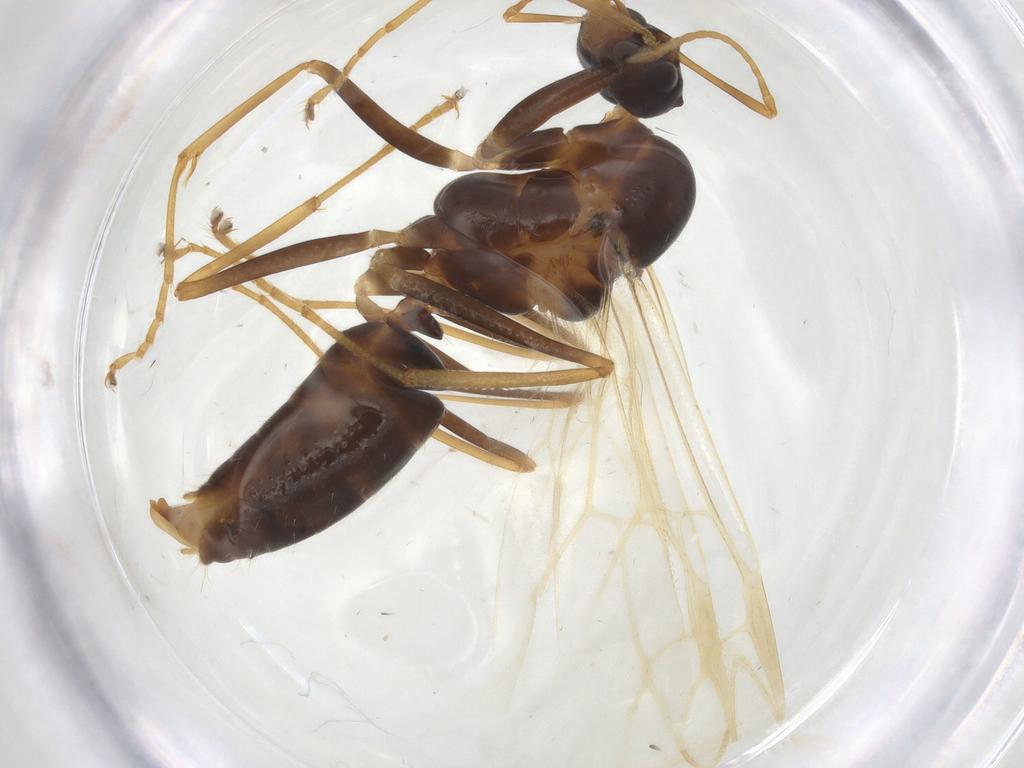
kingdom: Animalia
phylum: Arthropoda
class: Insecta
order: Hymenoptera
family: Formicidae
